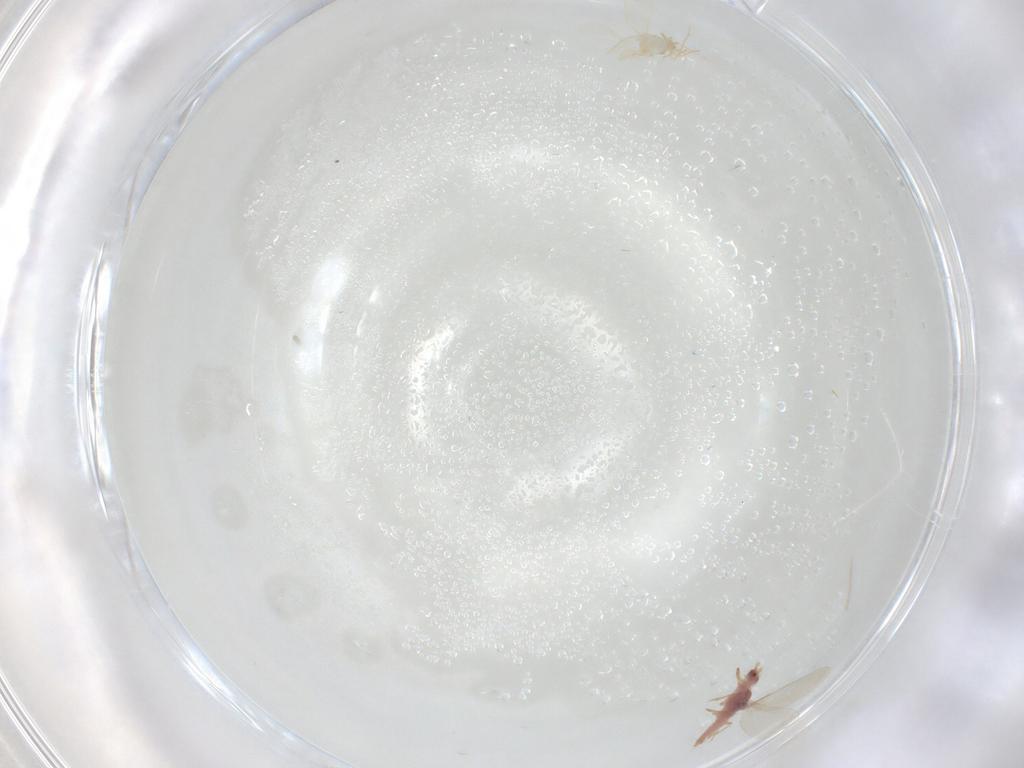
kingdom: Animalia
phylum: Arthropoda
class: Insecta
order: Hemiptera
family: Aleyrodidae
